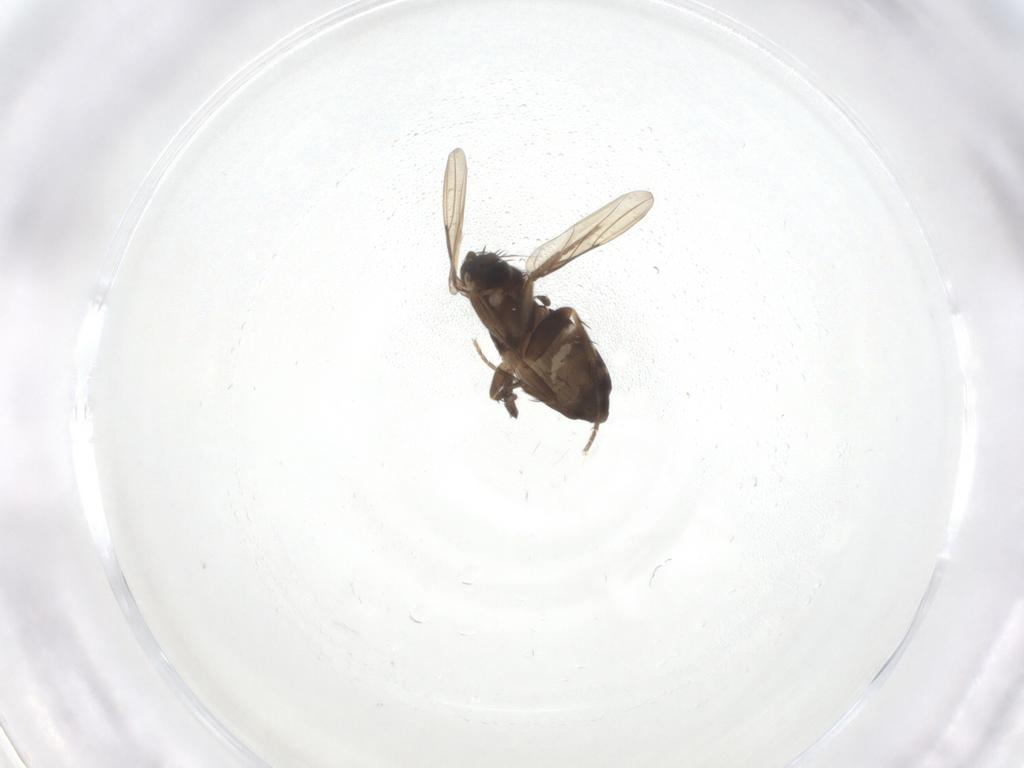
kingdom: Animalia
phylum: Arthropoda
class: Insecta
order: Diptera
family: Phoridae
